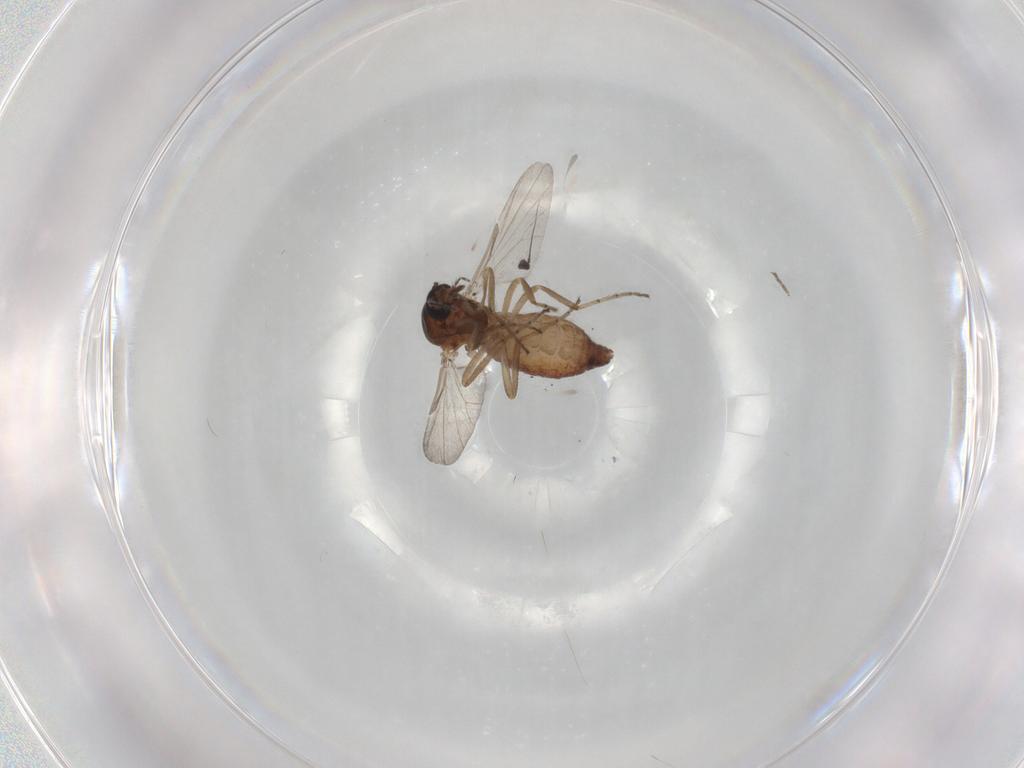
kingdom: Animalia
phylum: Arthropoda
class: Insecta
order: Diptera
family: Ceratopogonidae
